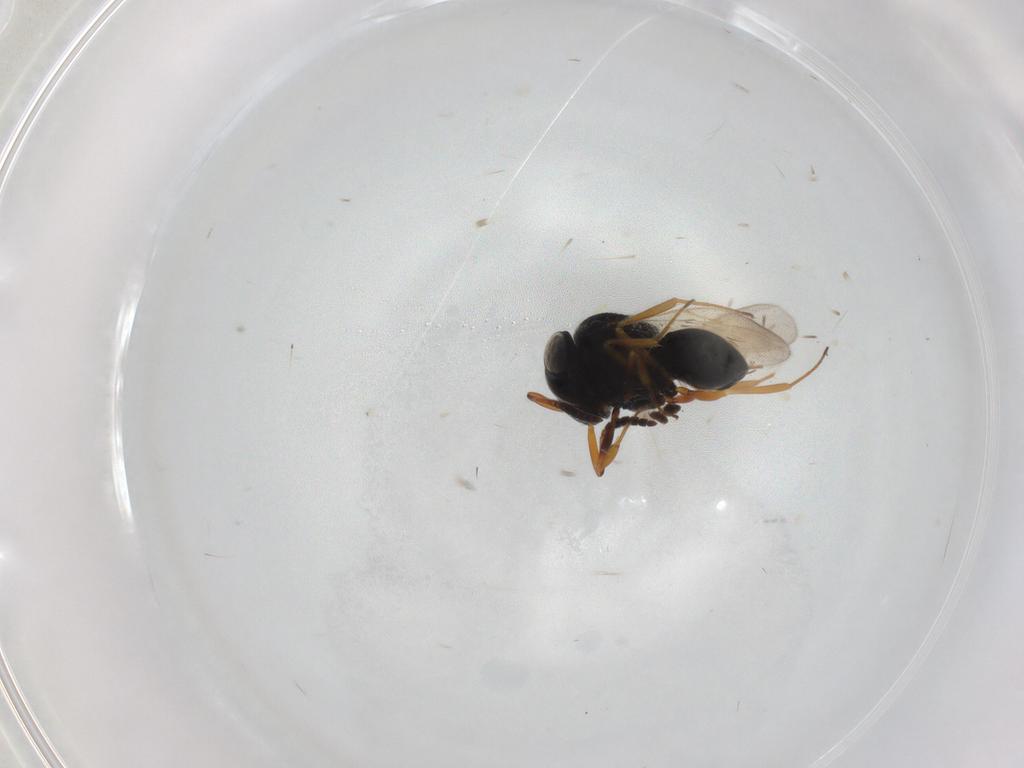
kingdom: Animalia
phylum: Arthropoda
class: Insecta
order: Hymenoptera
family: Scelionidae
